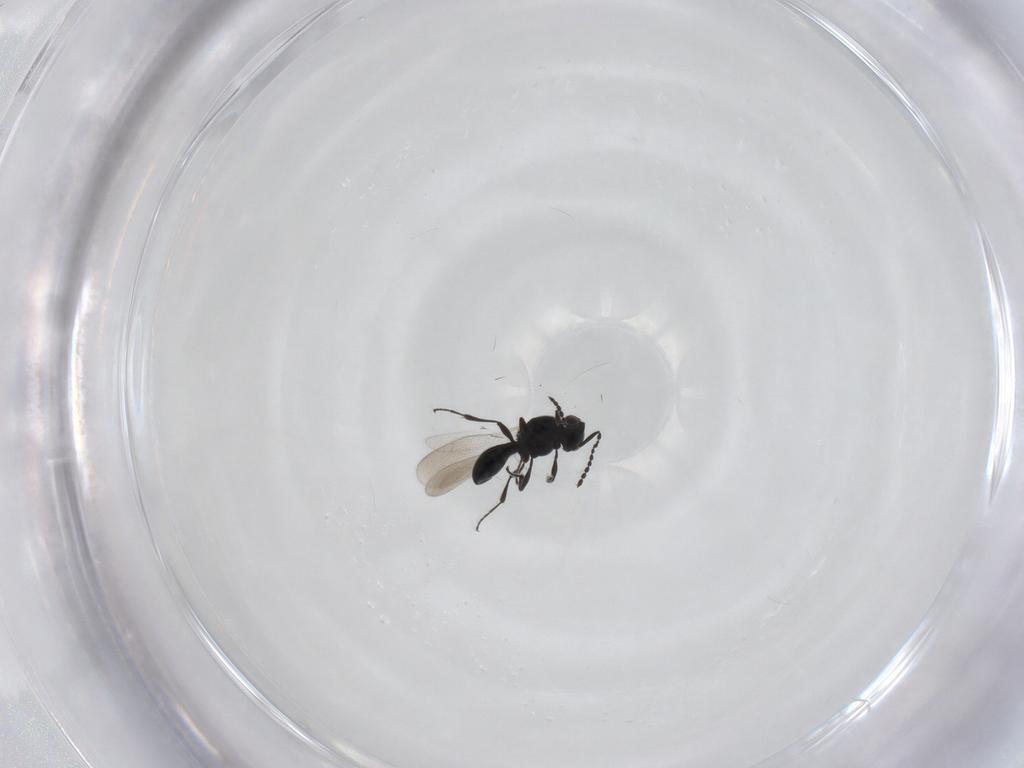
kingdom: Animalia
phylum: Arthropoda
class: Insecta
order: Diptera
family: Mythicomyiidae
